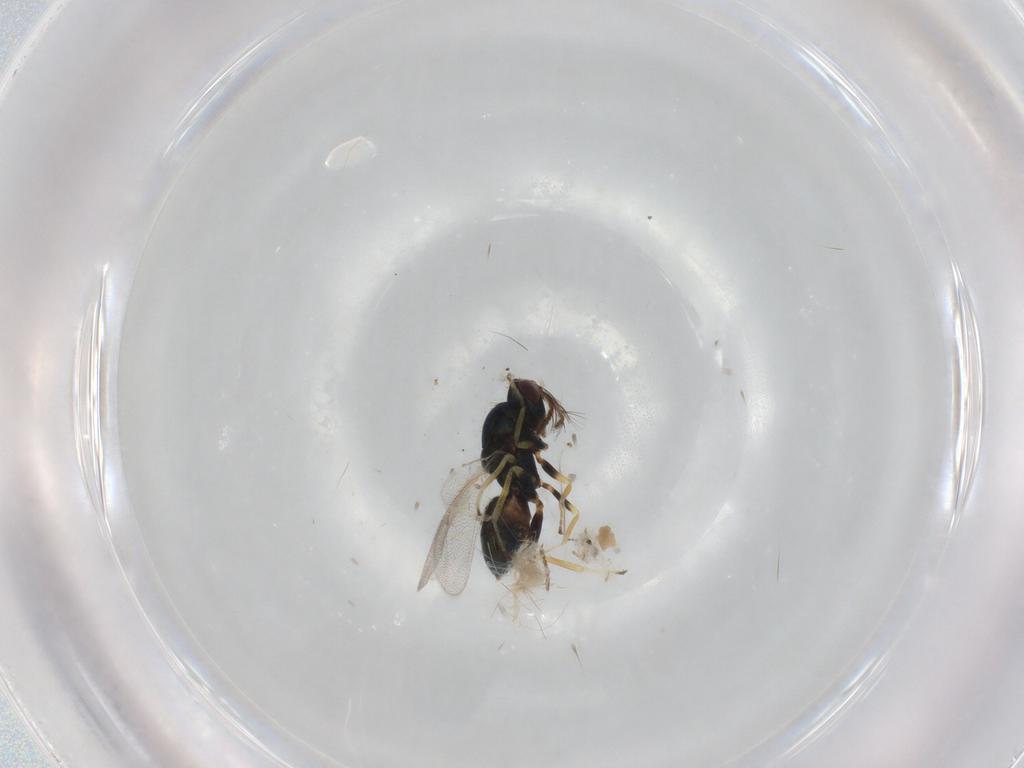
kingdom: Animalia
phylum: Arthropoda
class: Insecta
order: Hymenoptera
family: Eulophidae
